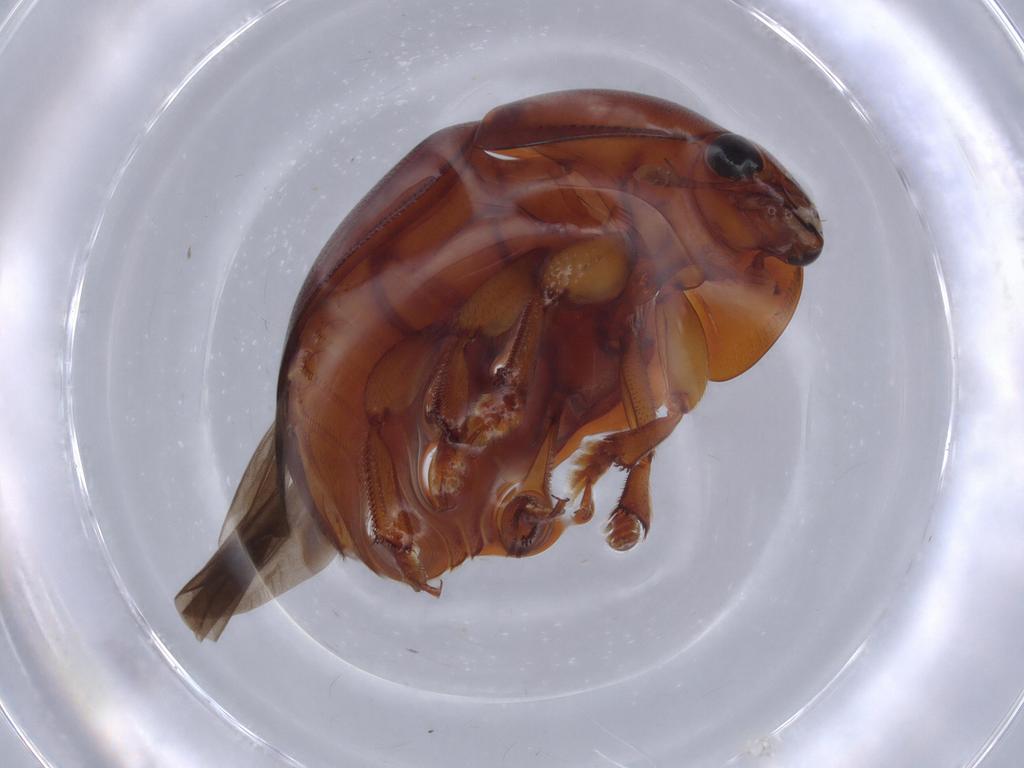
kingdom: Animalia
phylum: Arthropoda
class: Insecta
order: Coleoptera
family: Nitidulidae
